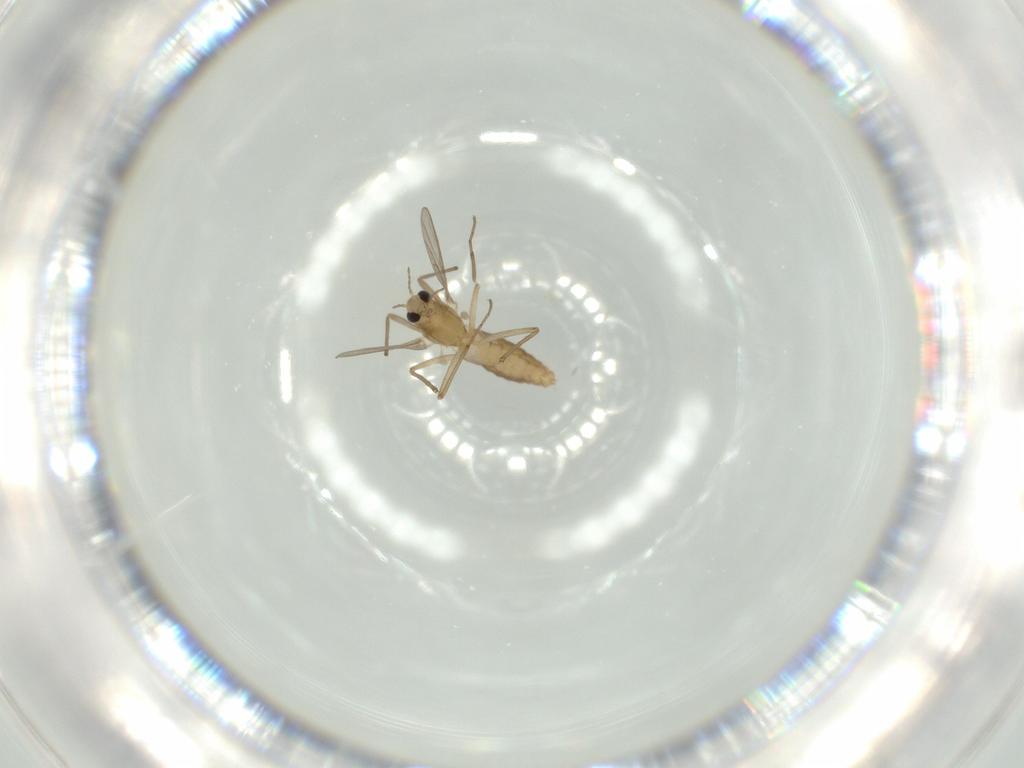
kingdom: Animalia
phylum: Arthropoda
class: Insecta
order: Diptera
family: Chironomidae
